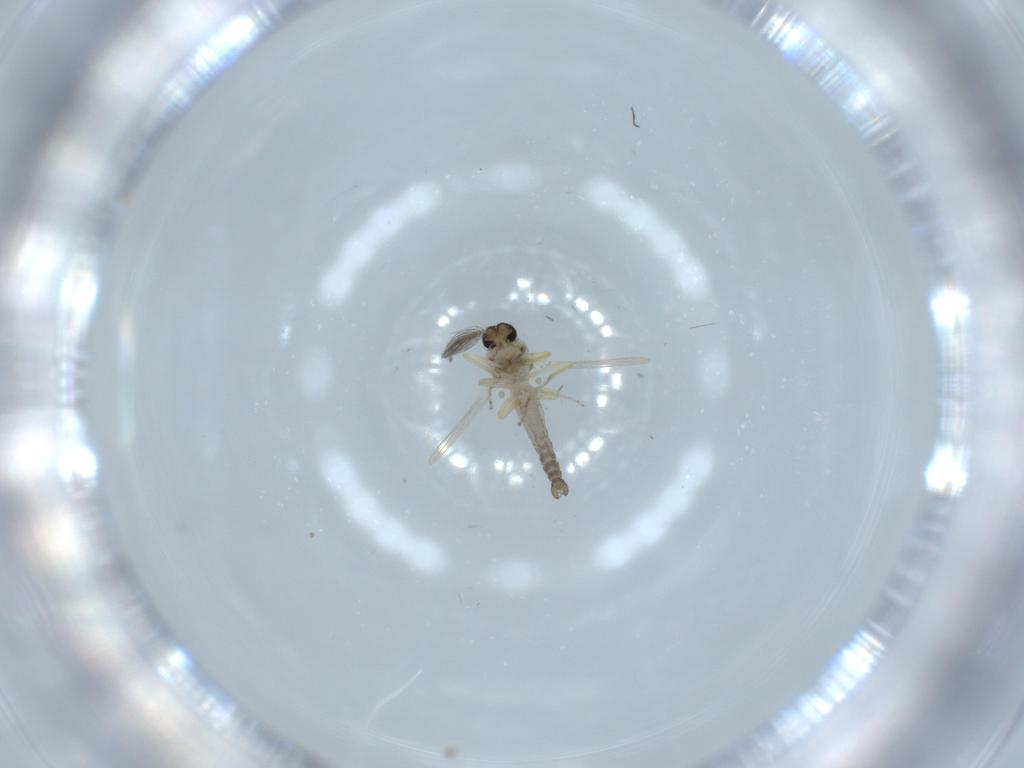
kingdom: Animalia
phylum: Arthropoda
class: Insecta
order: Diptera
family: Ceratopogonidae
